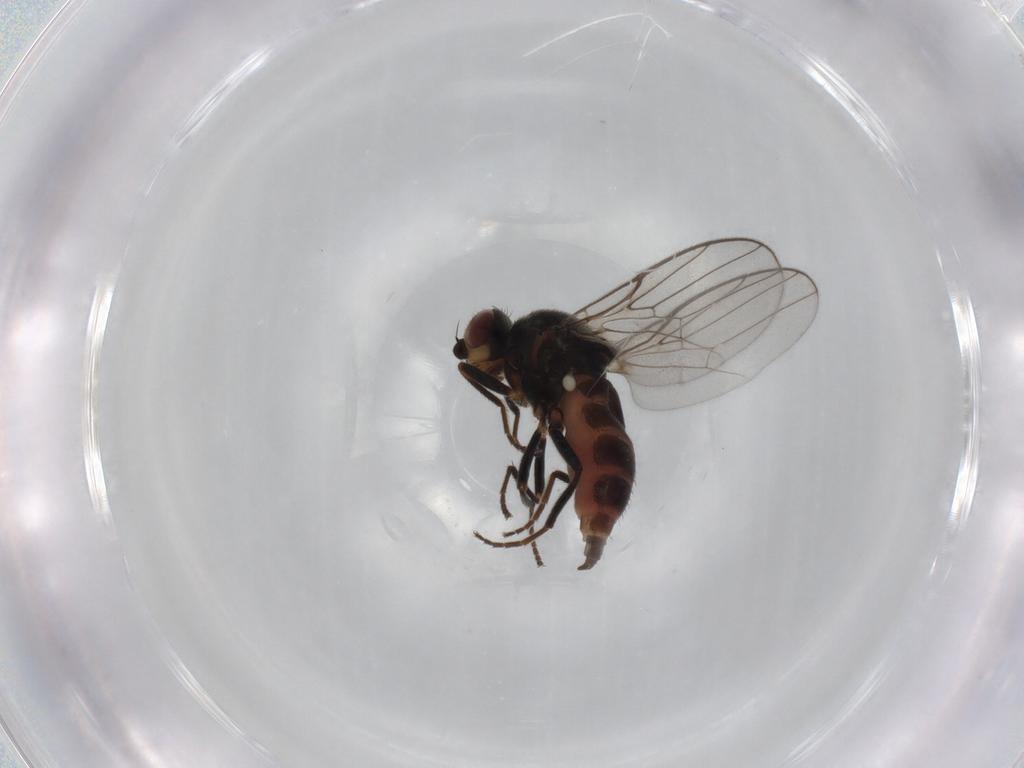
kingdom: Animalia
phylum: Arthropoda
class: Insecta
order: Diptera
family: Chloropidae
